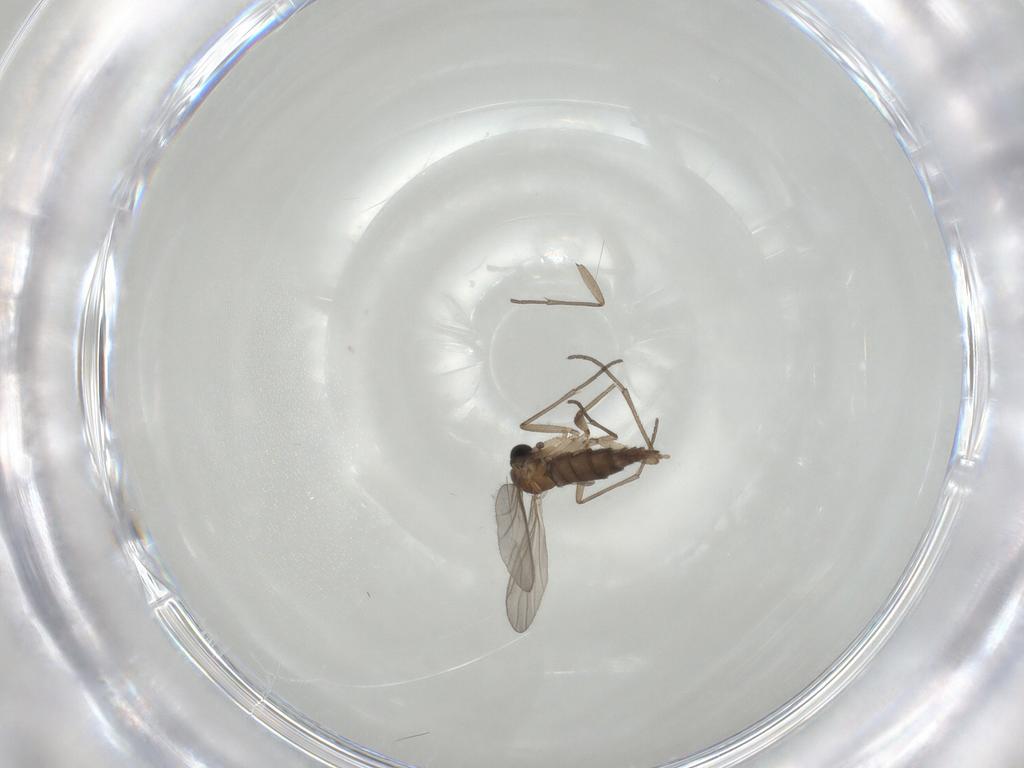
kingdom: Animalia
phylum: Arthropoda
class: Insecta
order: Diptera
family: Sciaridae
